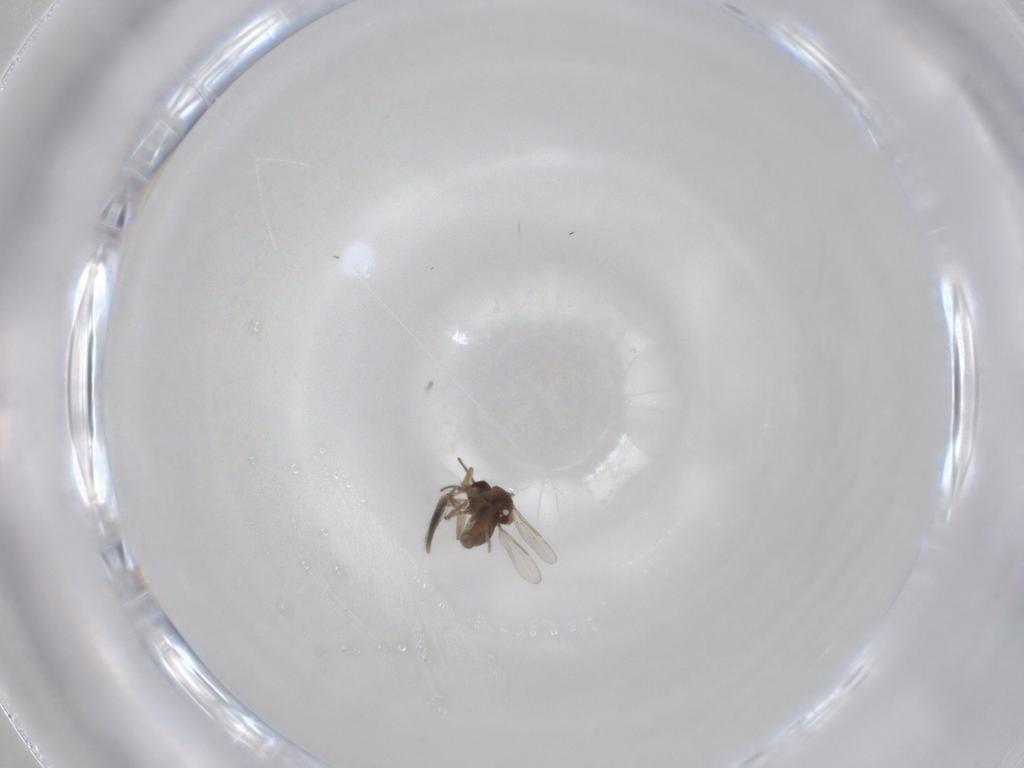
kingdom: Animalia
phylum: Arthropoda
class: Insecta
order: Diptera
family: Ceratopogonidae
